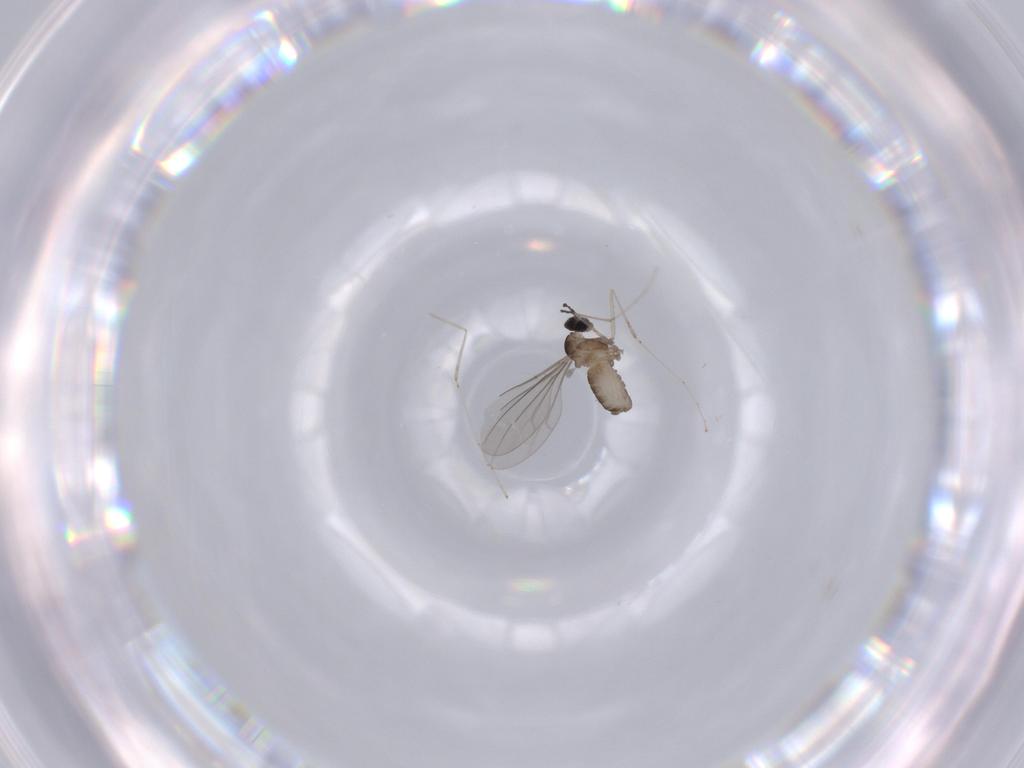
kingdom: Animalia
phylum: Arthropoda
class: Insecta
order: Diptera
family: Cecidomyiidae
